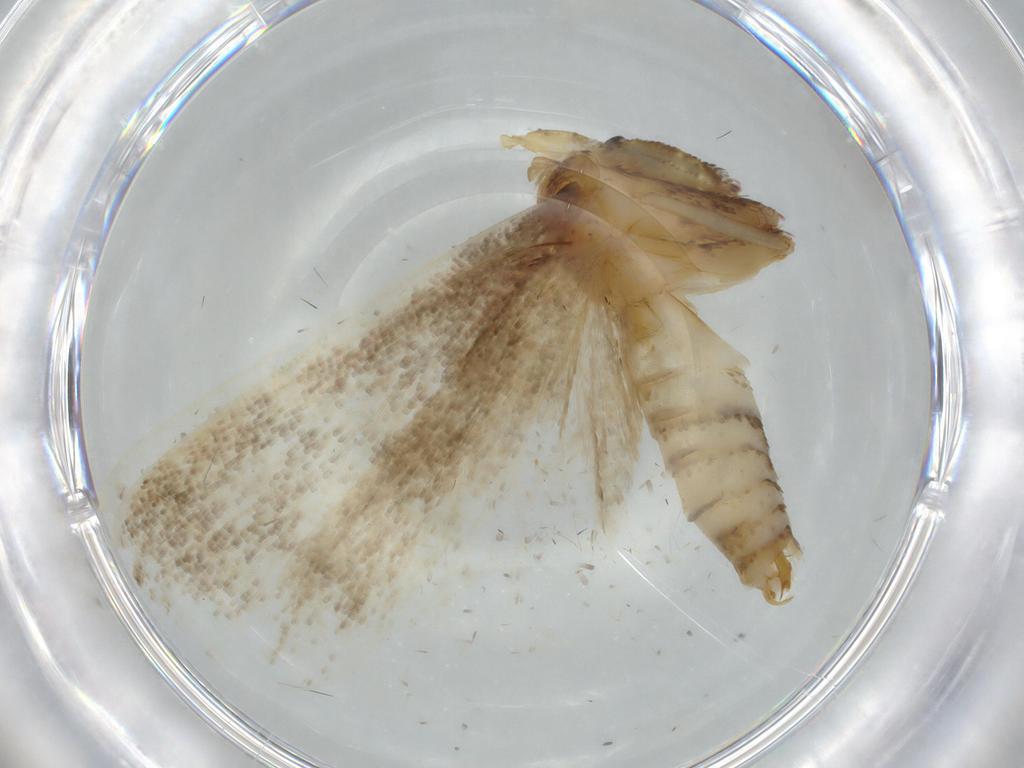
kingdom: Animalia
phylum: Arthropoda
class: Insecta
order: Lepidoptera
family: Pyralidae
